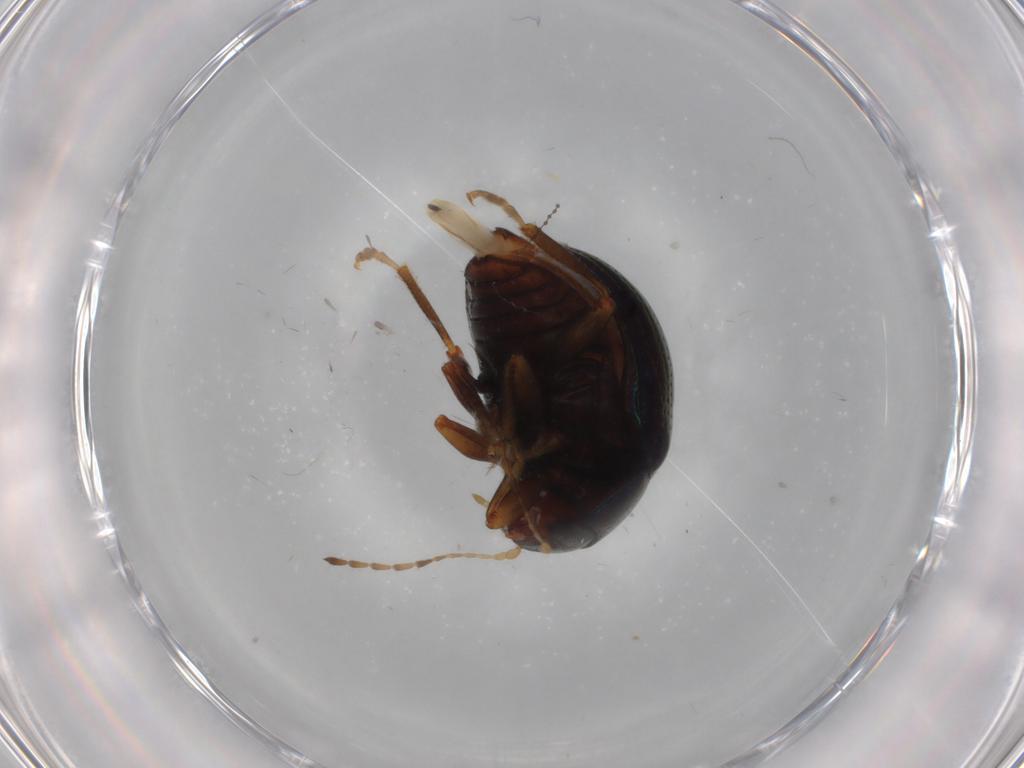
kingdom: Animalia
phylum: Arthropoda
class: Insecta
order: Coleoptera
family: Chrysomelidae
